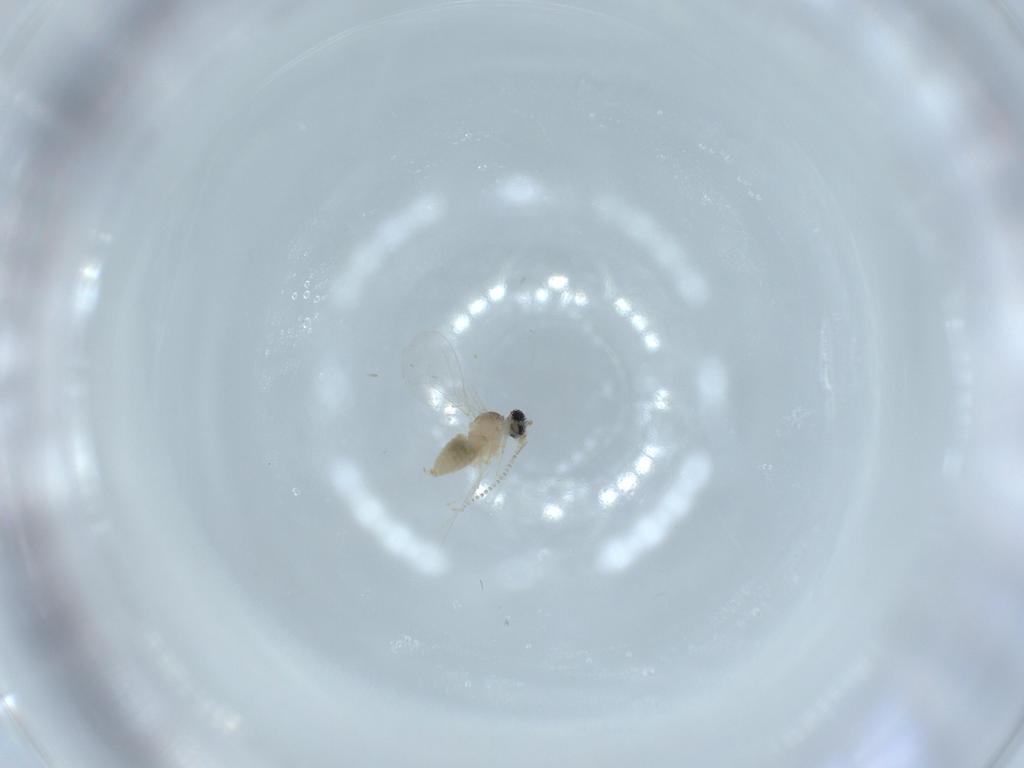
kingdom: Animalia
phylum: Arthropoda
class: Insecta
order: Diptera
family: Cecidomyiidae
